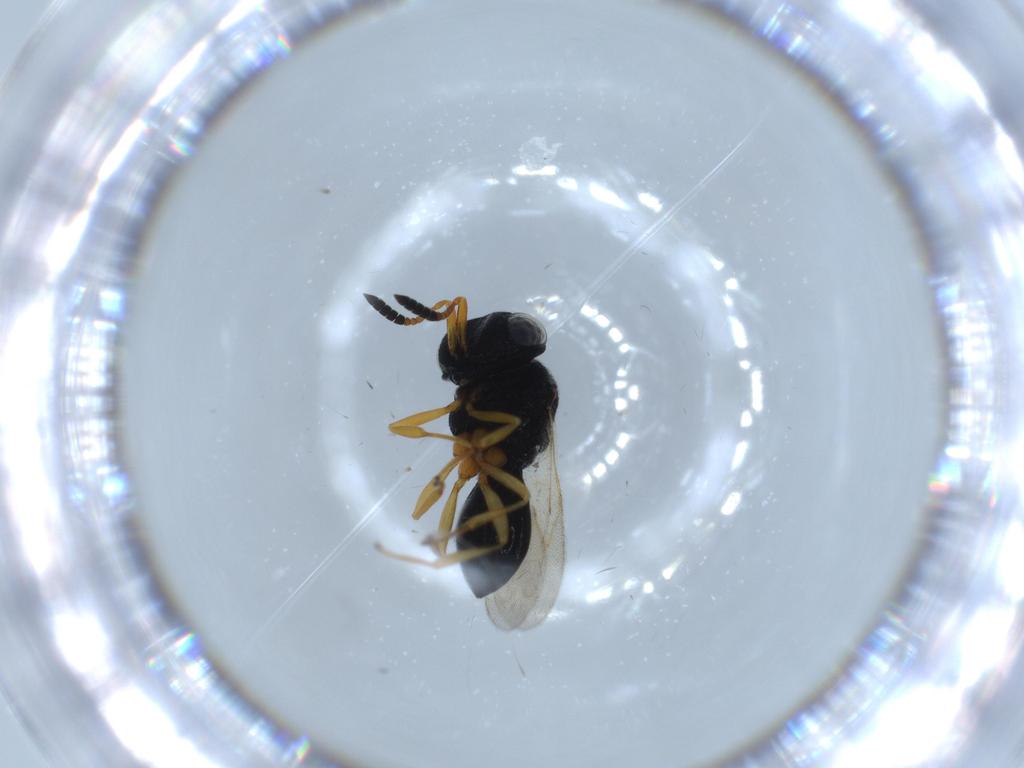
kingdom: Animalia
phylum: Arthropoda
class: Insecta
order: Hymenoptera
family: Scelionidae
